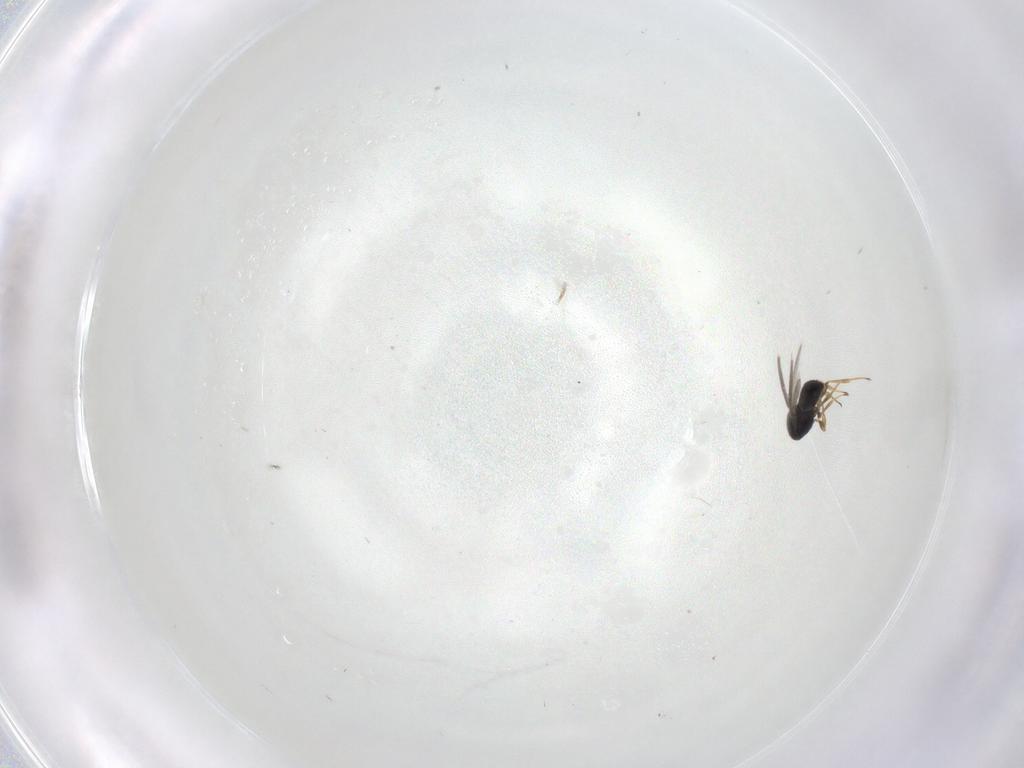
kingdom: Animalia
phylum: Arthropoda
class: Insecta
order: Hymenoptera
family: Scelionidae
